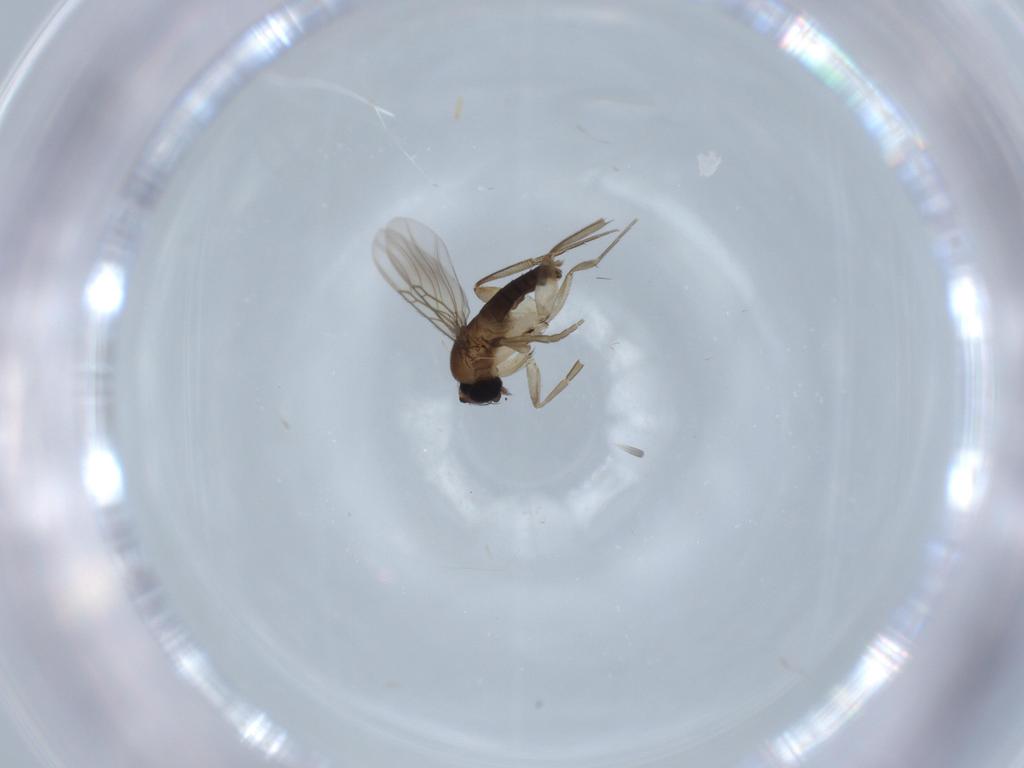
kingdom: Animalia
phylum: Arthropoda
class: Insecta
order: Diptera
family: Cecidomyiidae
